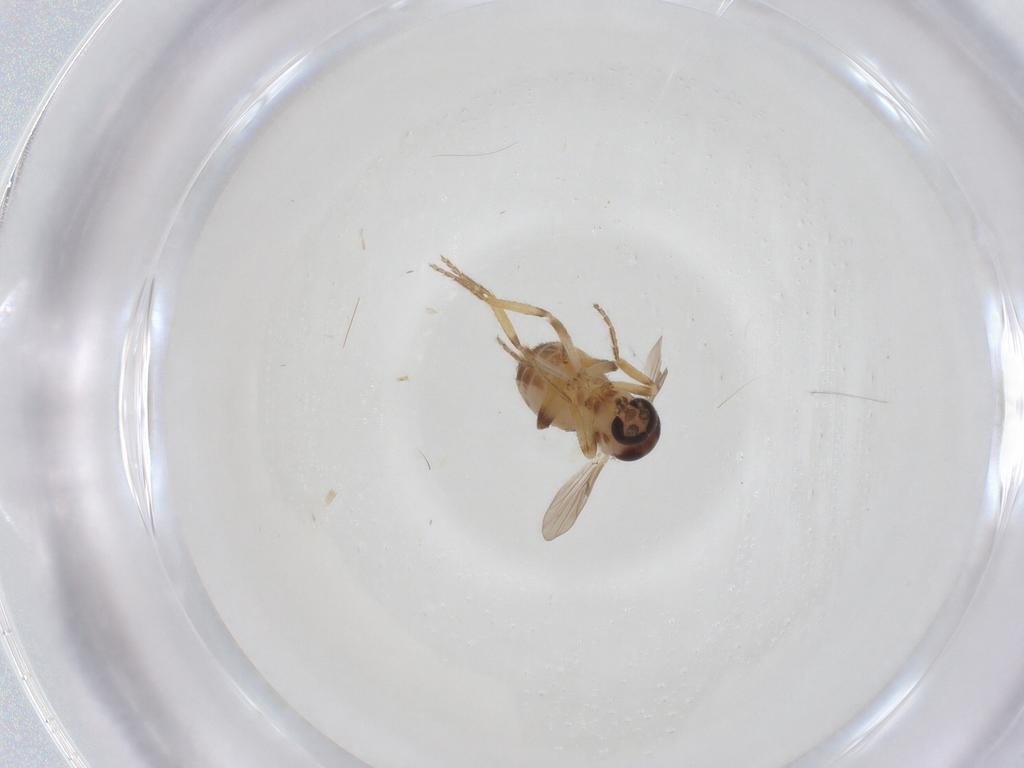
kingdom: Animalia
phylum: Arthropoda
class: Insecta
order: Diptera
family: Ceratopogonidae
